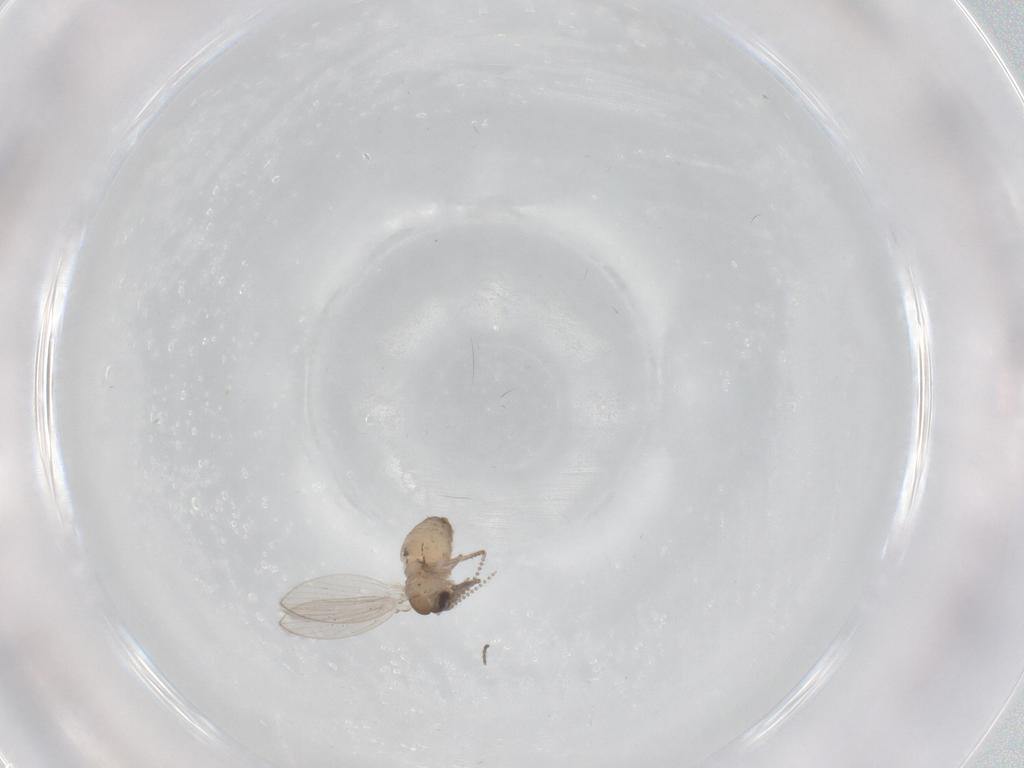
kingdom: Animalia
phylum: Arthropoda
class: Insecta
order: Diptera
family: Psychodidae
